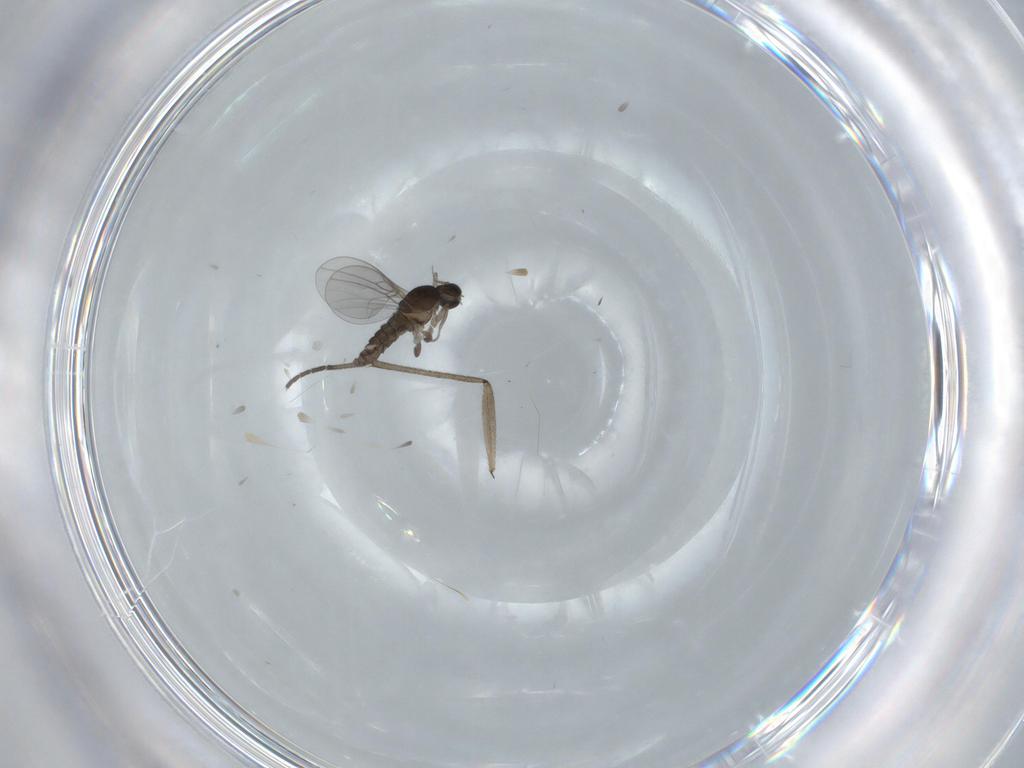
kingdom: Animalia
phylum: Arthropoda
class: Insecta
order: Diptera
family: Cecidomyiidae
